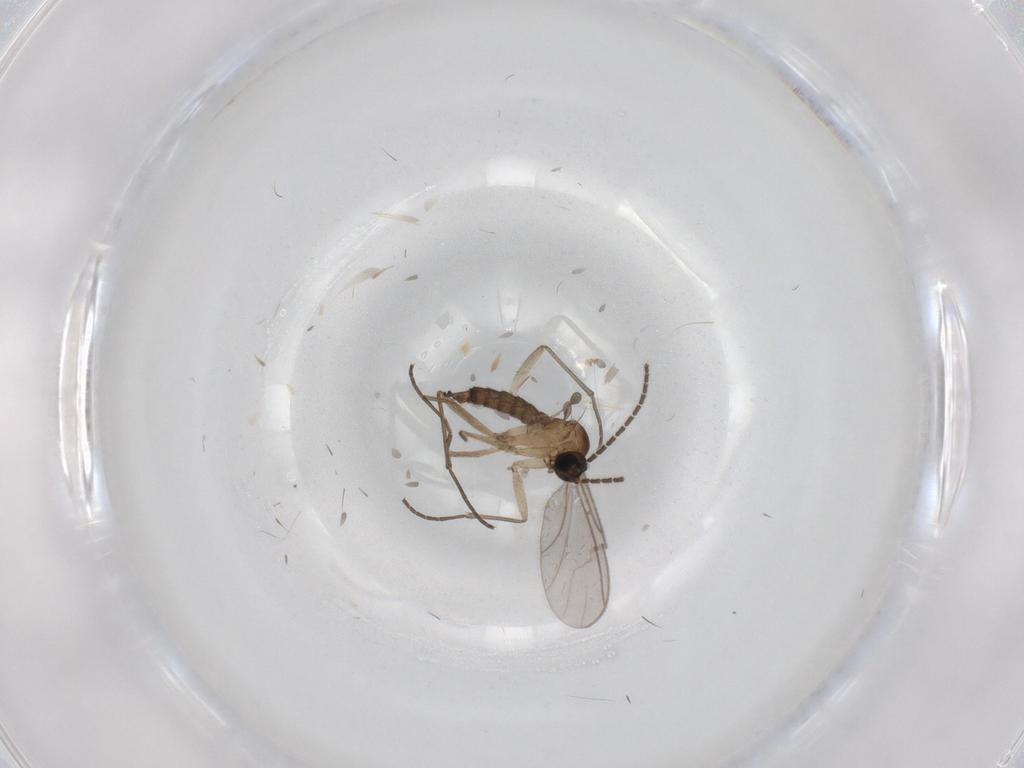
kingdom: Animalia
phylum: Arthropoda
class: Insecta
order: Diptera
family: Sciaridae
